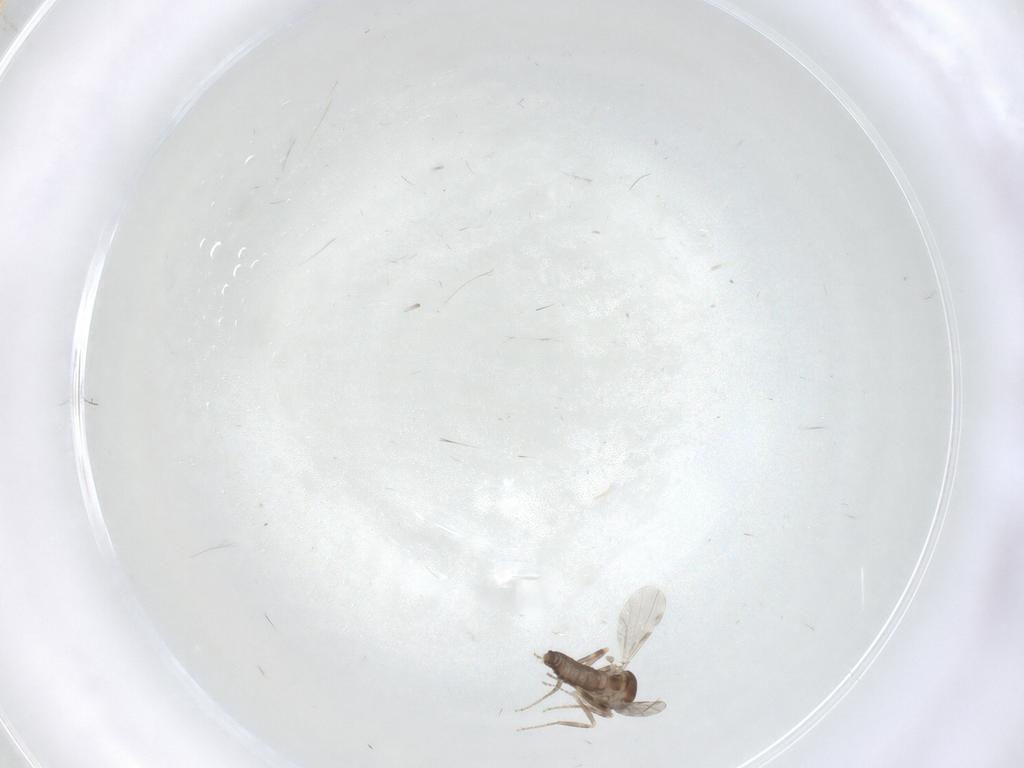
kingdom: Animalia
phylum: Arthropoda
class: Insecta
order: Diptera
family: Ceratopogonidae
